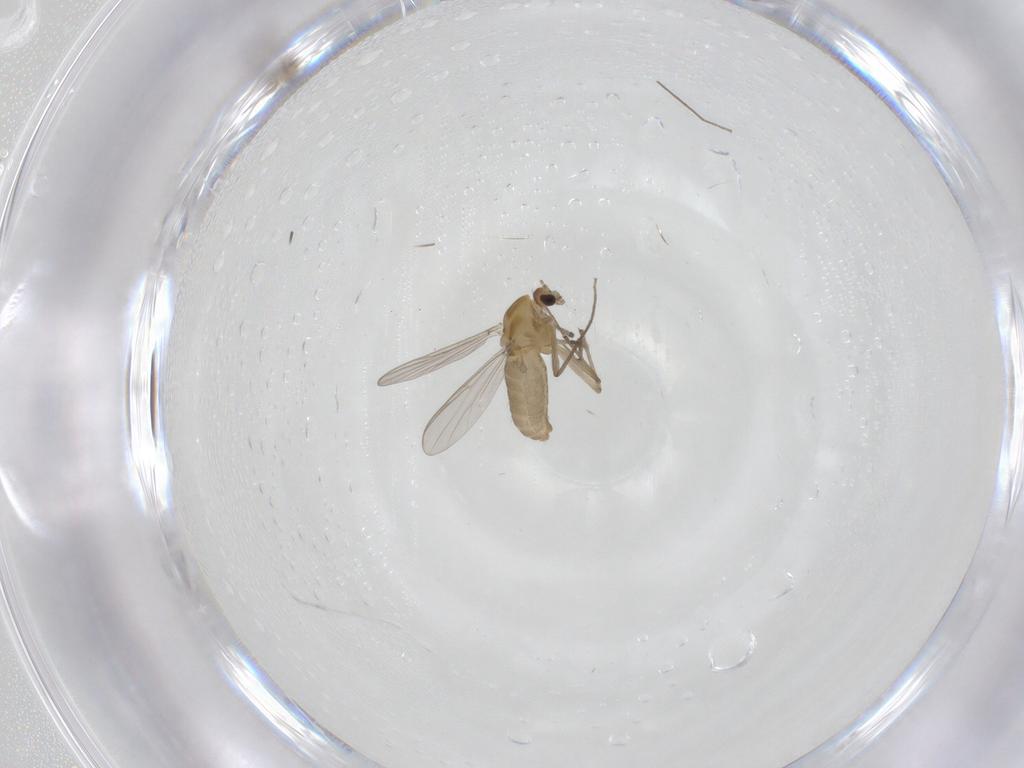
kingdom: Animalia
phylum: Arthropoda
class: Insecta
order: Diptera
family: Chironomidae
